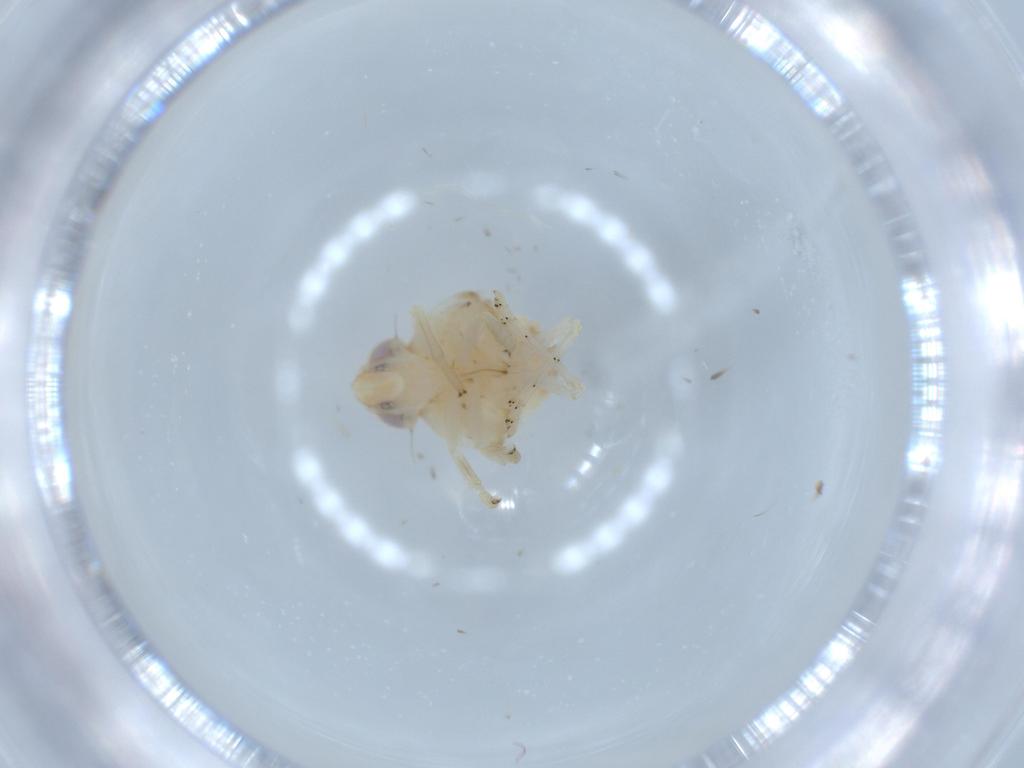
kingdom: Animalia
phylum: Arthropoda
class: Insecta
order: Hemiptera
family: Nogodinidae
